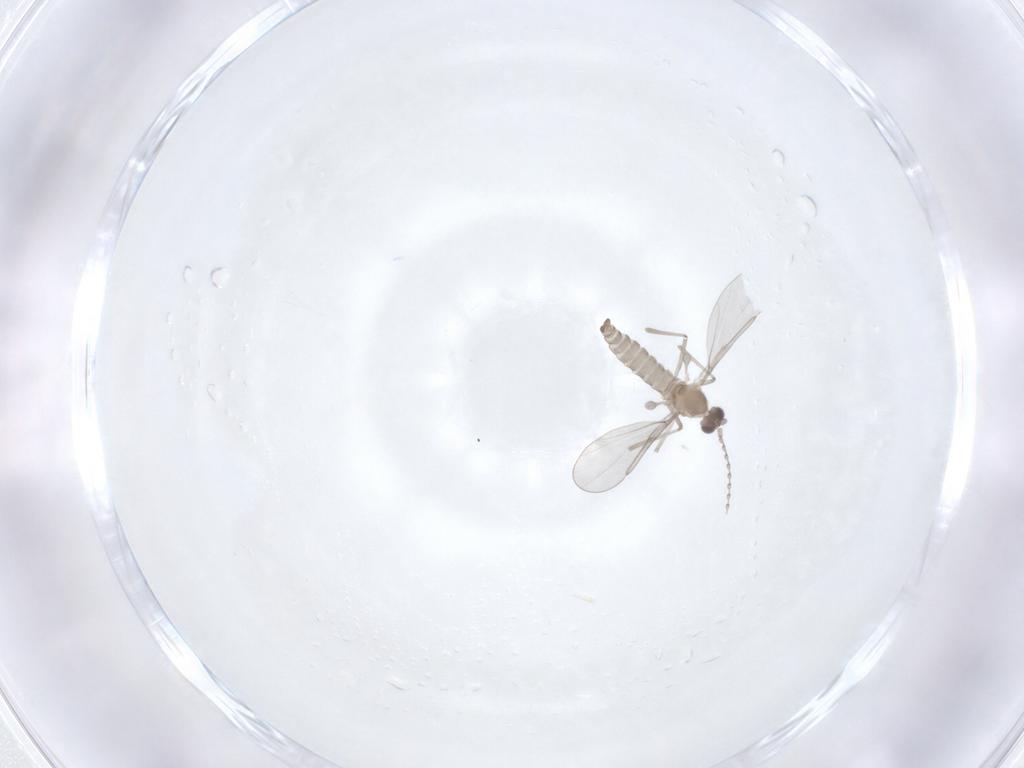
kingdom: Animalia
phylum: Arthropoda
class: Insecta
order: Diptera
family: Cecidomyiidae
